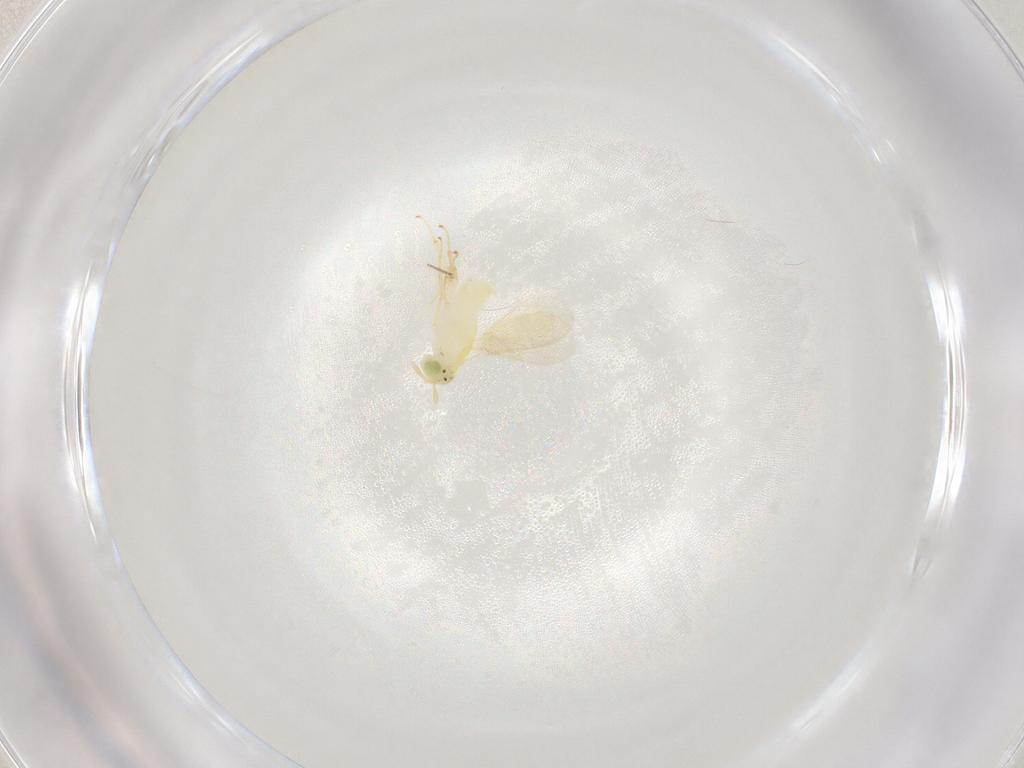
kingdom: Animalia
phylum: Arthropoda
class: Insecta
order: Hymenoptera
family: Aphelinidae
